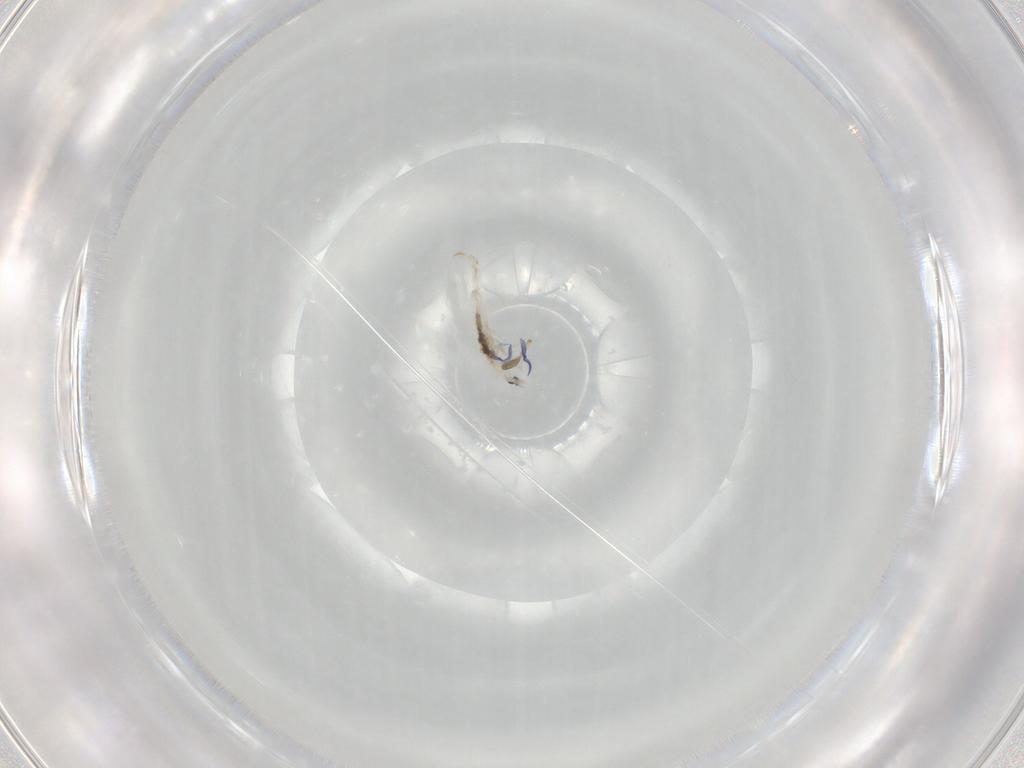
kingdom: Animalia
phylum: Arthropoda
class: Collembola
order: Entomobryomorpha
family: Entomobryidae
